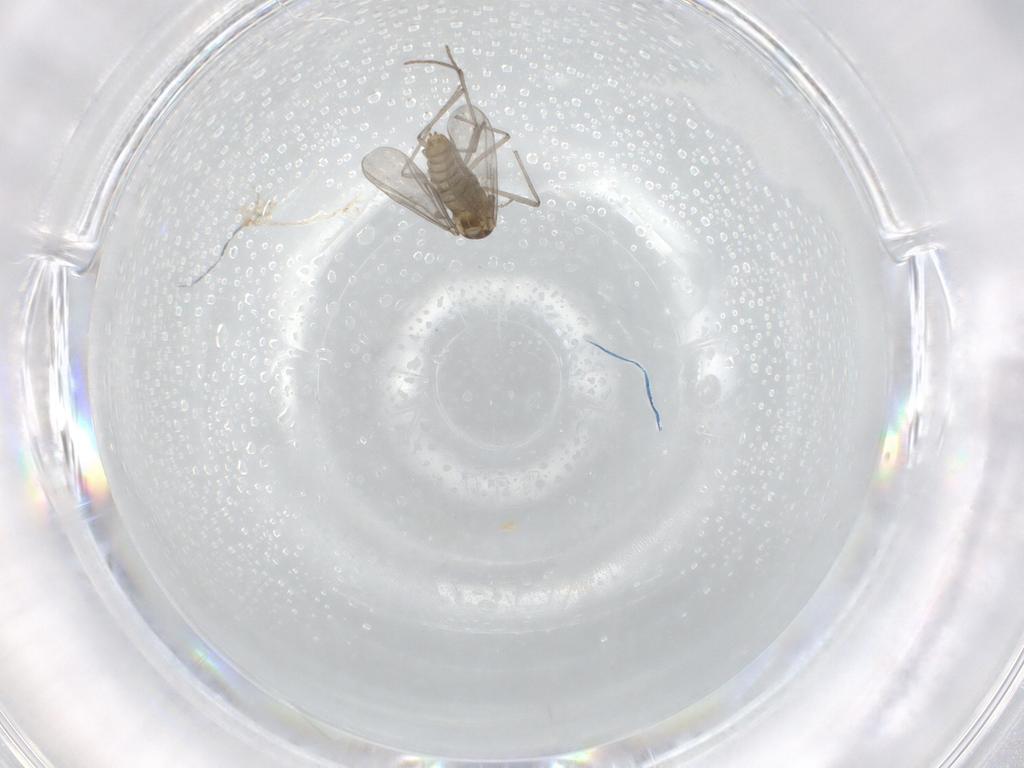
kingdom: Animalia
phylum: Arthropoda
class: Insecta
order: Diptera
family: Chironomidae
